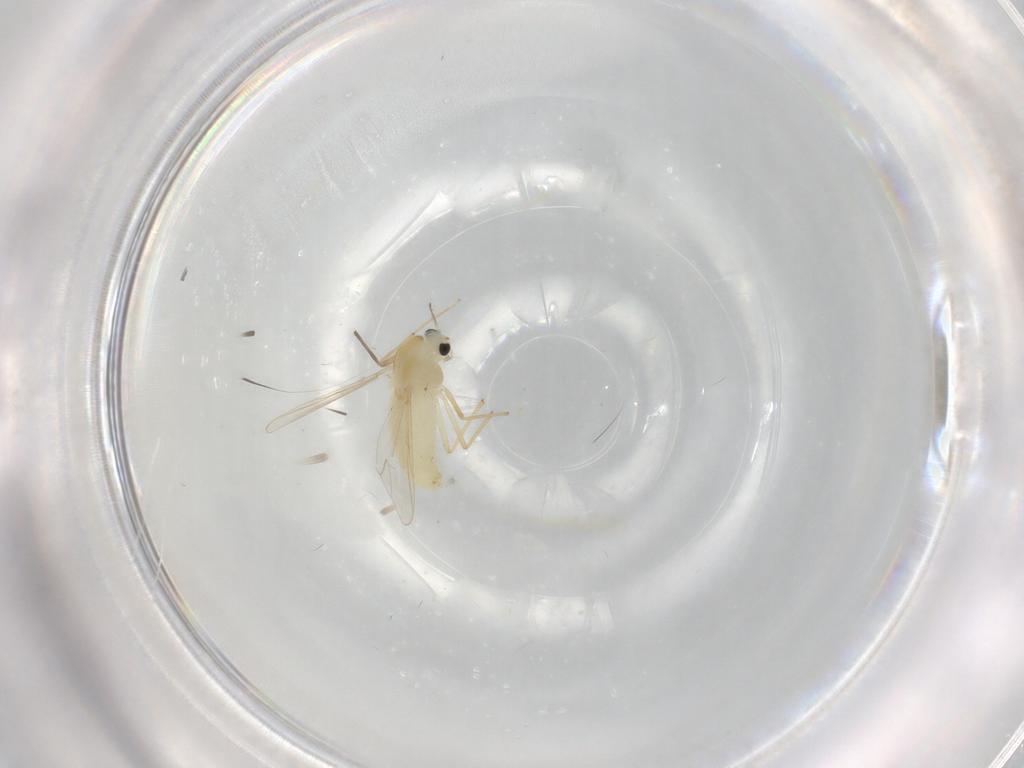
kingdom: Animalia
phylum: Arthropoda
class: Insecta
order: Diptera
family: Chironomidae
